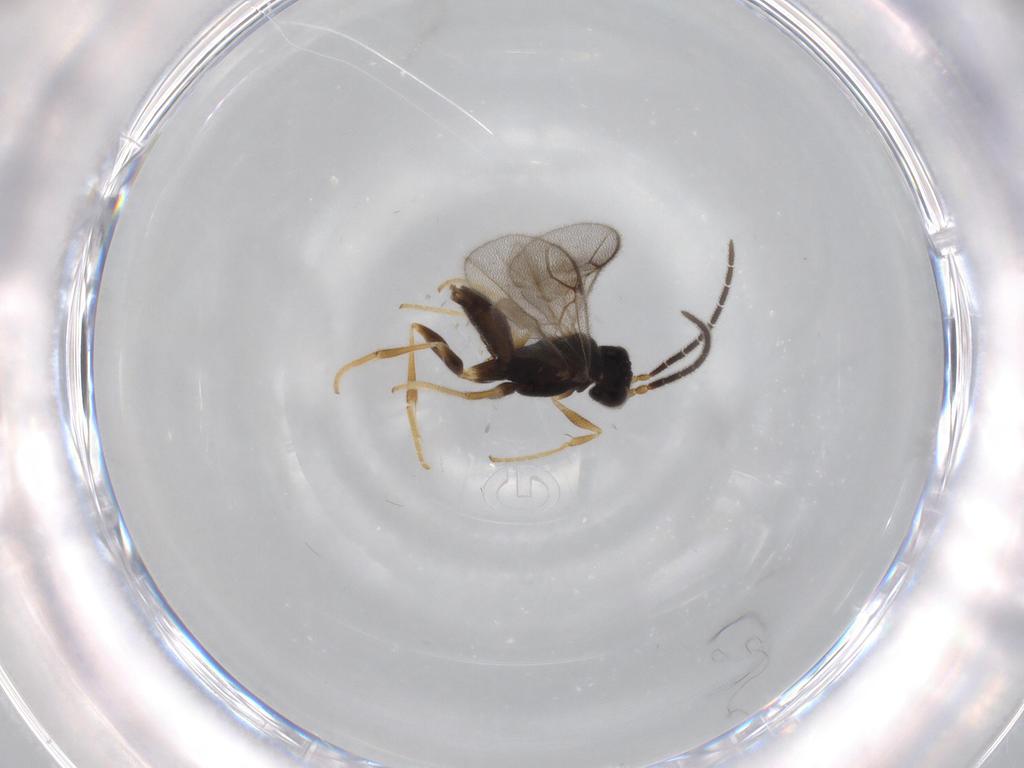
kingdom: Animalia
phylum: Arthropoda
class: Insecta
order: Hymenoptera
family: Dryinidae
